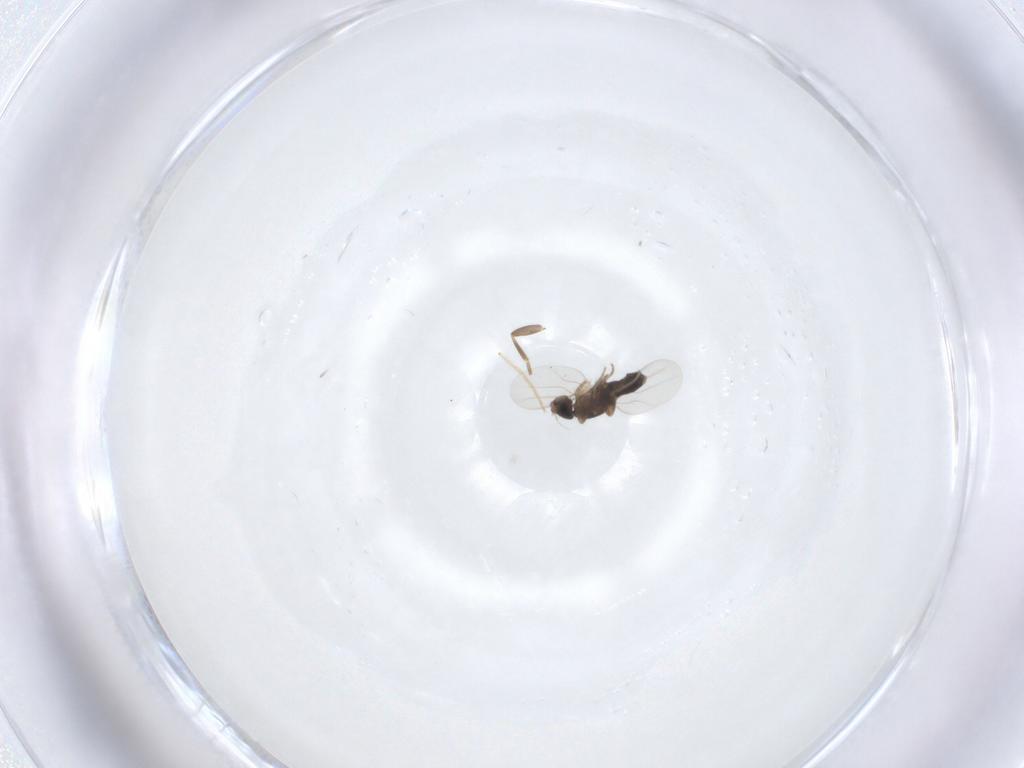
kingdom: Animalia
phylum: Arthropoda
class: Insecta
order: Diptera
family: Phoridae
